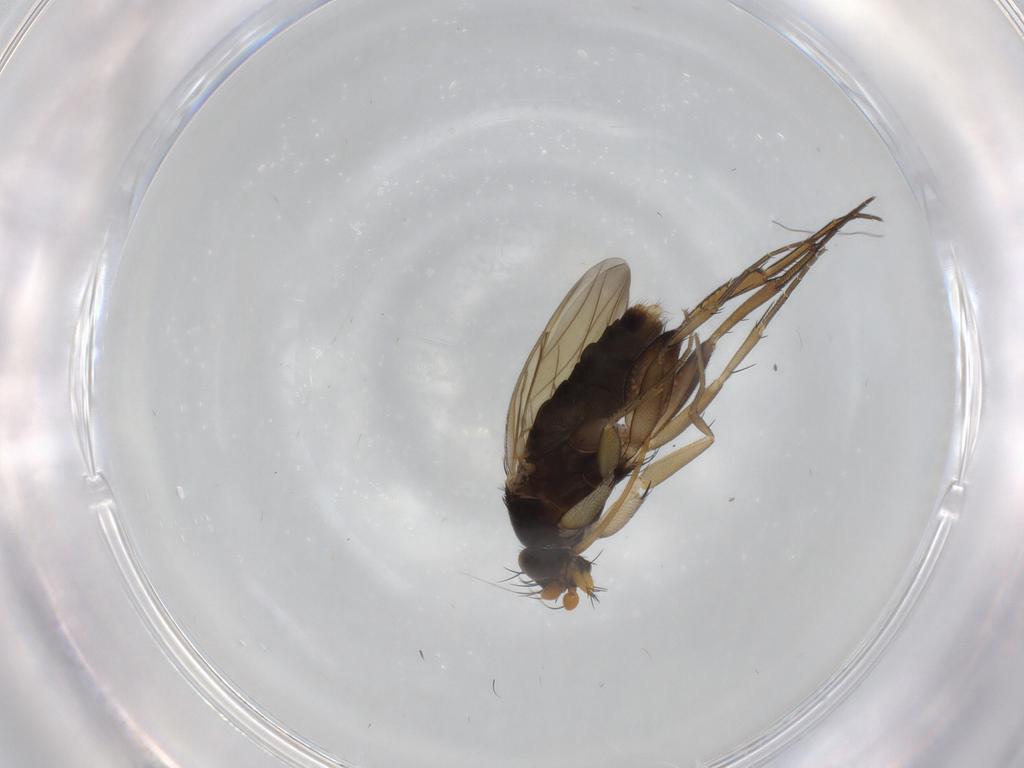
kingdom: Animalia
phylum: Arthropoda
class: Insecta
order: Diptera
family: Phoridae
